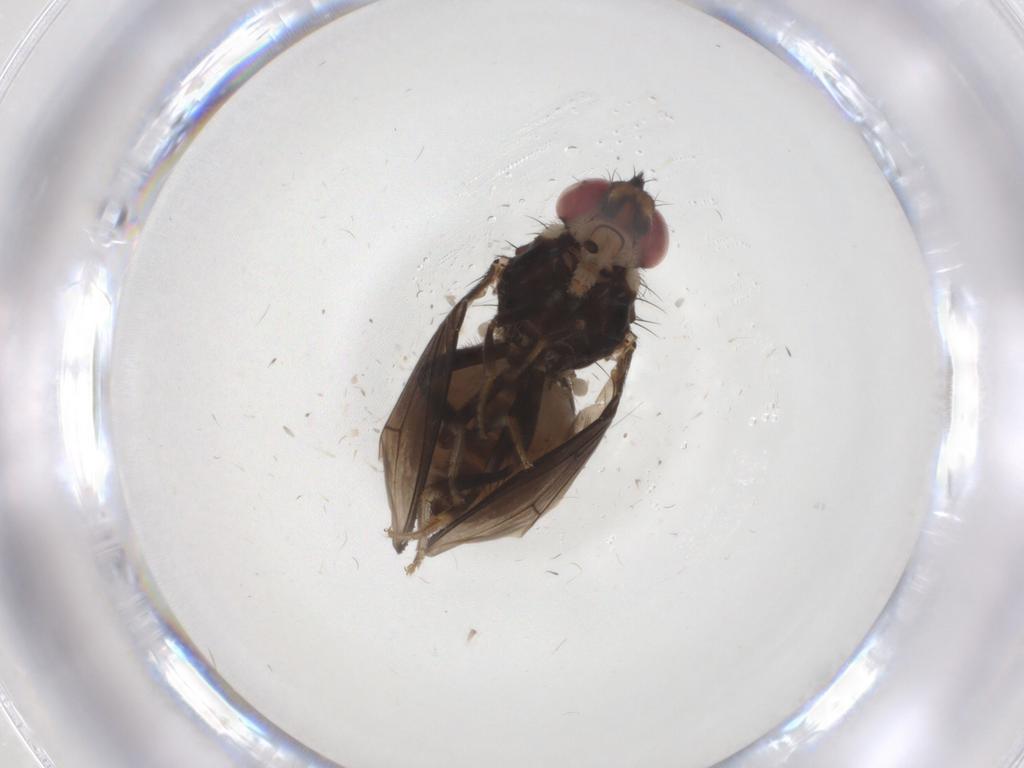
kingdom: Animalia
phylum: Arthropoda
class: Insecta
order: Diptera
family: Drosophilidae
